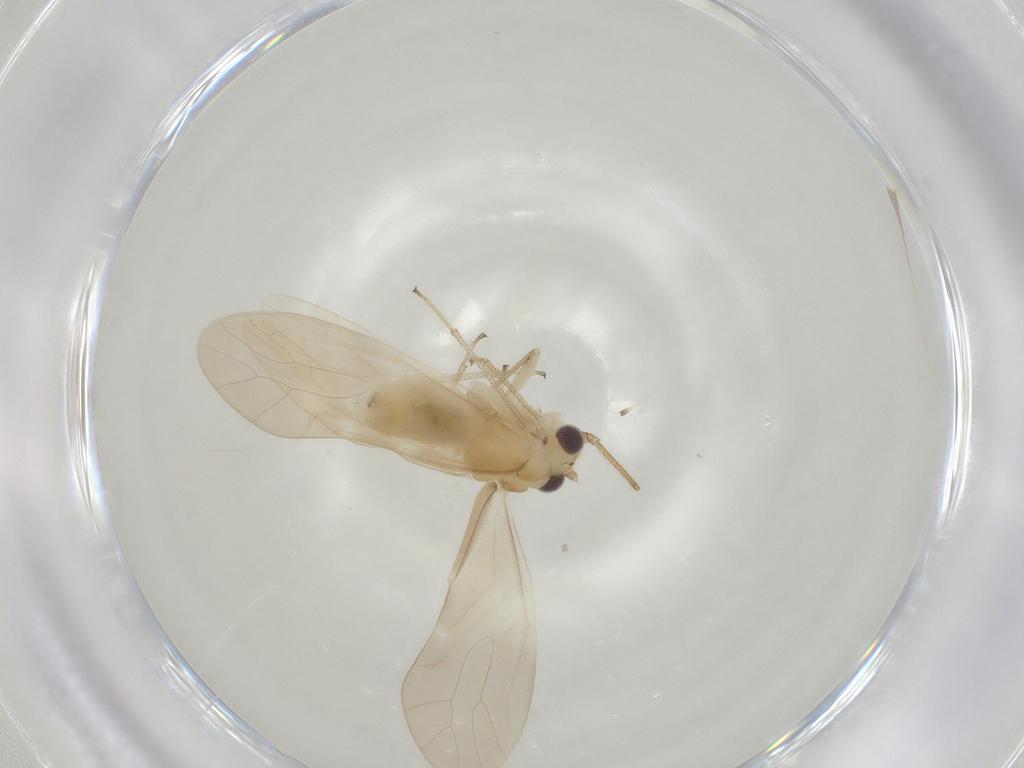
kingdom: Animalia
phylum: Arthropoda
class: Insecta
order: Psocodea
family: Caeciliusidae
